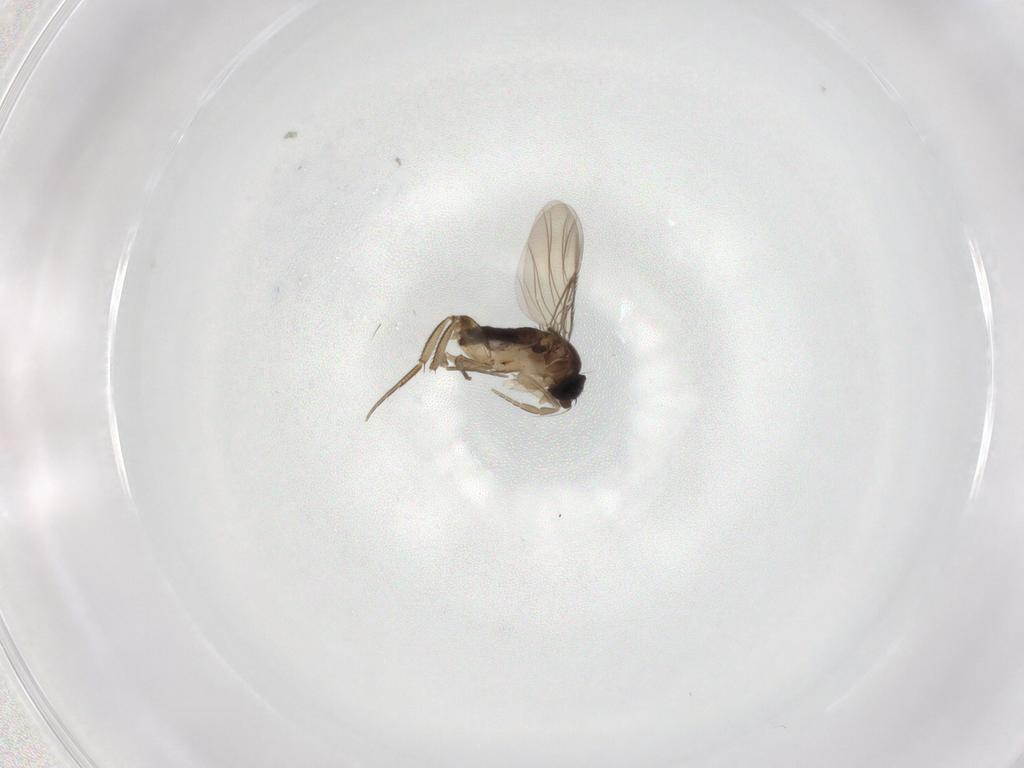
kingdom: Animalia
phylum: Arthropoda
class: Insecta
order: Diptera
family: Phoridae
